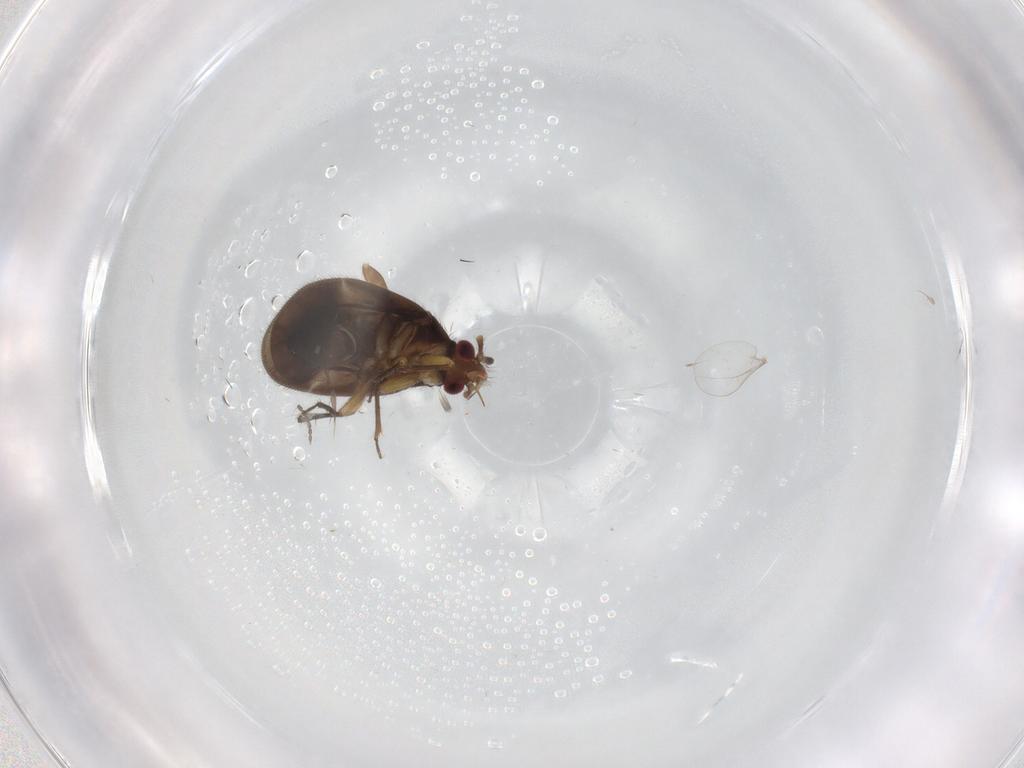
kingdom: Animalia
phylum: Arthropoda
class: Insecta
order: Hemiptera
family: Ceratocombidae
